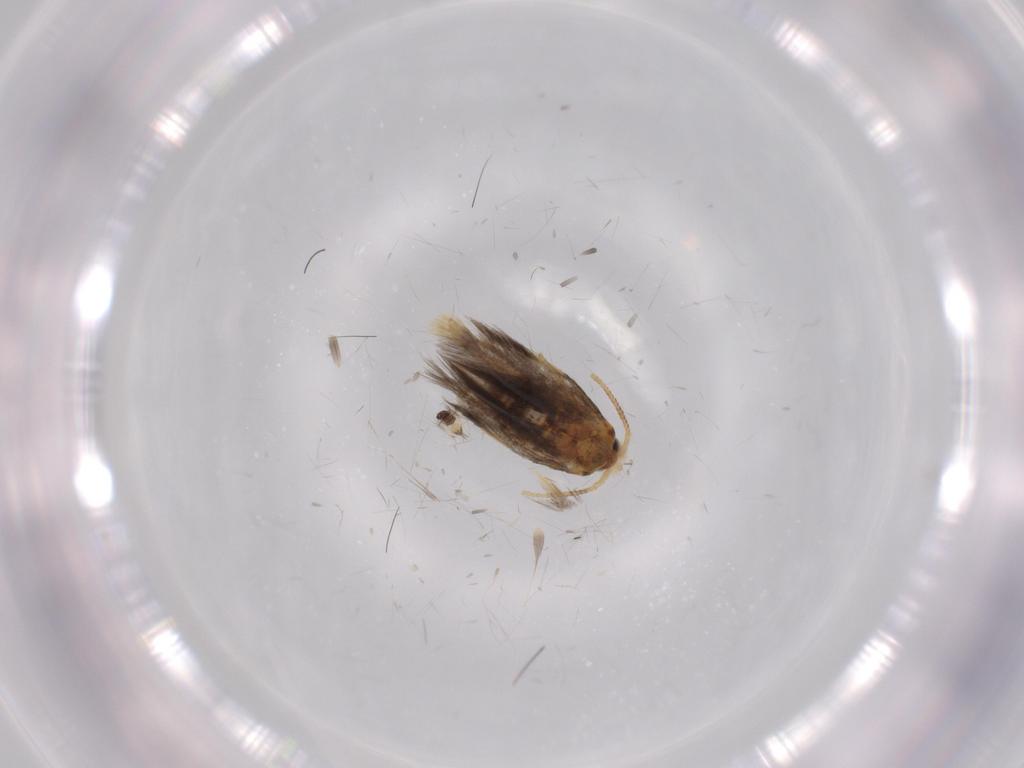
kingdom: Animalia
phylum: Arthropoda
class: Insecta
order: Lepidoptera
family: Copromorphidae
